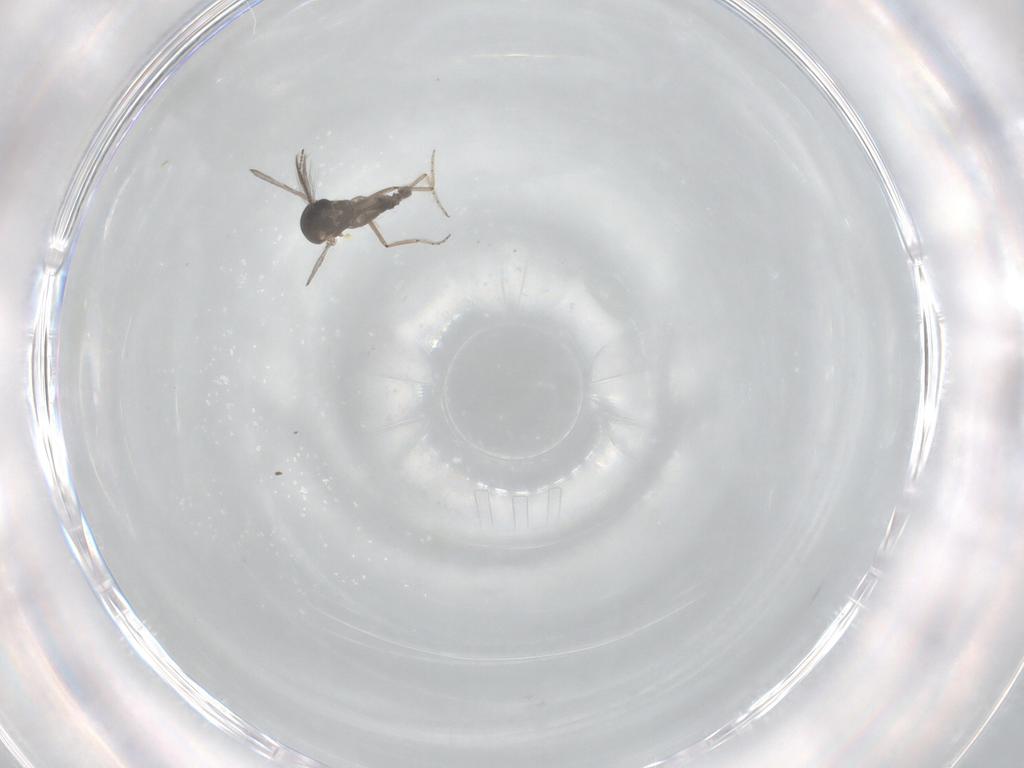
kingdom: Animalia
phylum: Arthropoda
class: Insecta
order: Diptera
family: Ceratopogonidae
